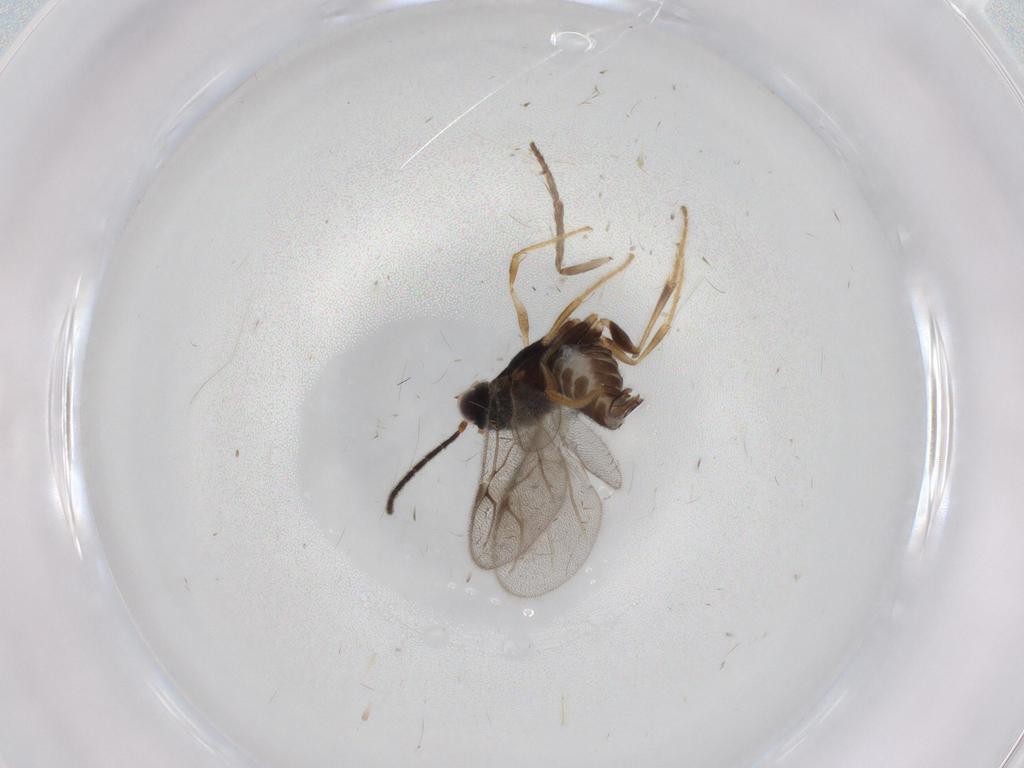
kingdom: Animalia
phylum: Arthropoda
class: Insecta
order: Hymenoptera
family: Dryinidae
